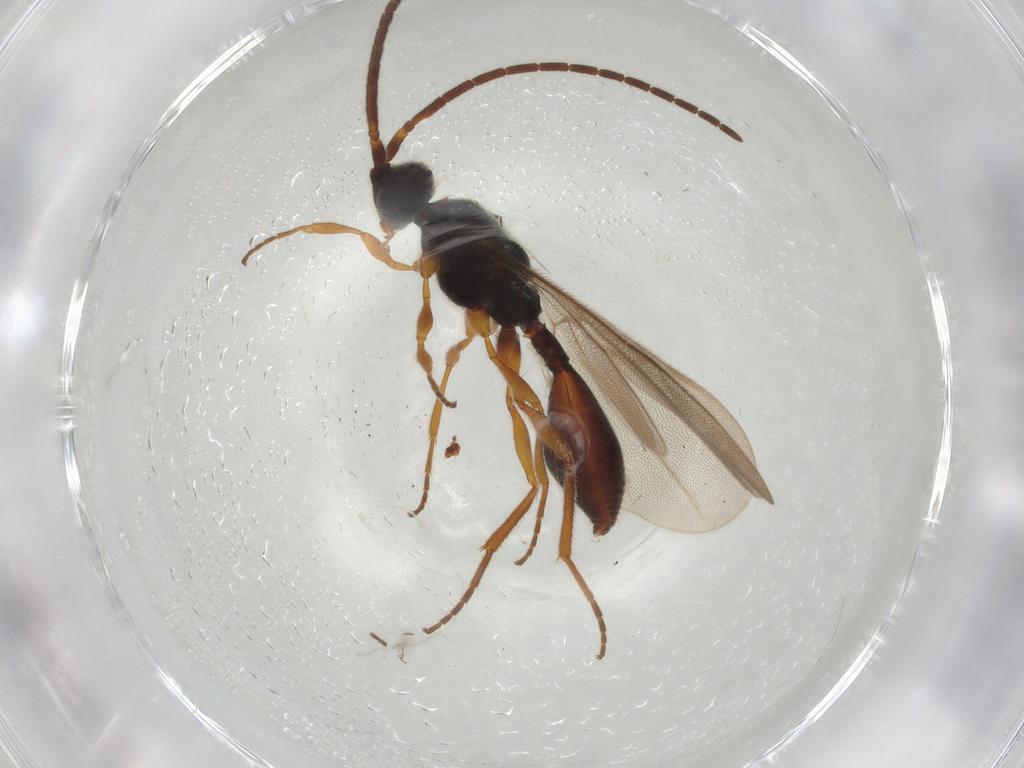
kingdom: Animalia
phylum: Arthropoda
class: Insecta
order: Hymenoptera
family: Diapriidae
